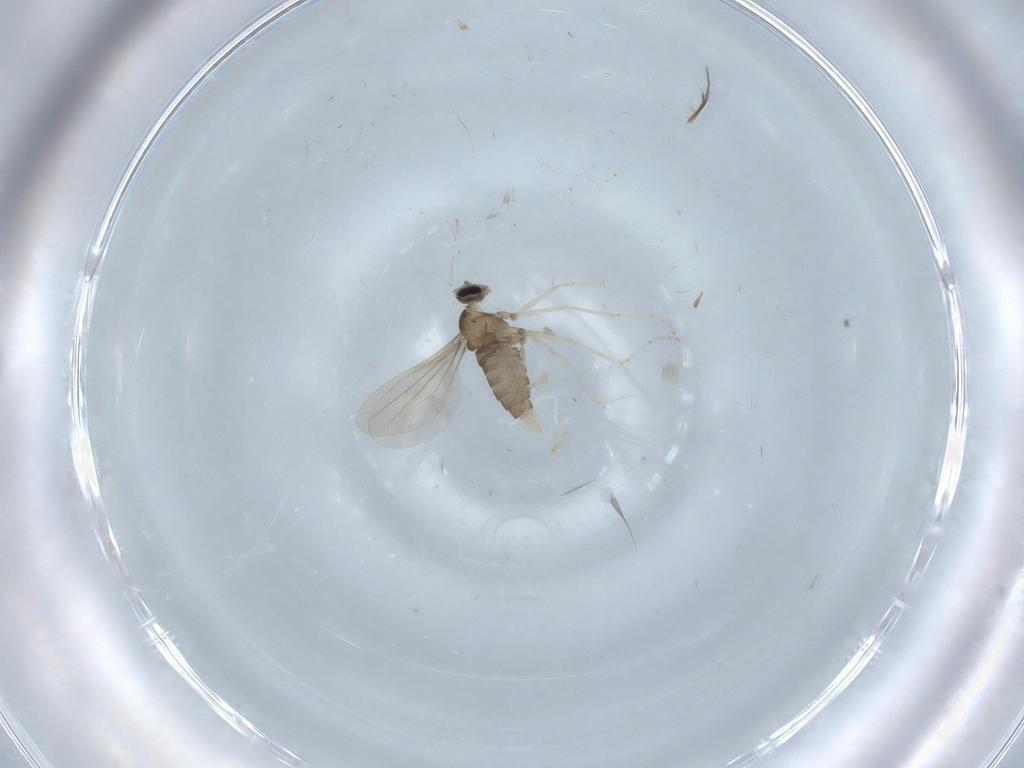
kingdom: Animalia
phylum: Arthropoda
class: Insecta
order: Diptera
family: Cecidomyiidae
